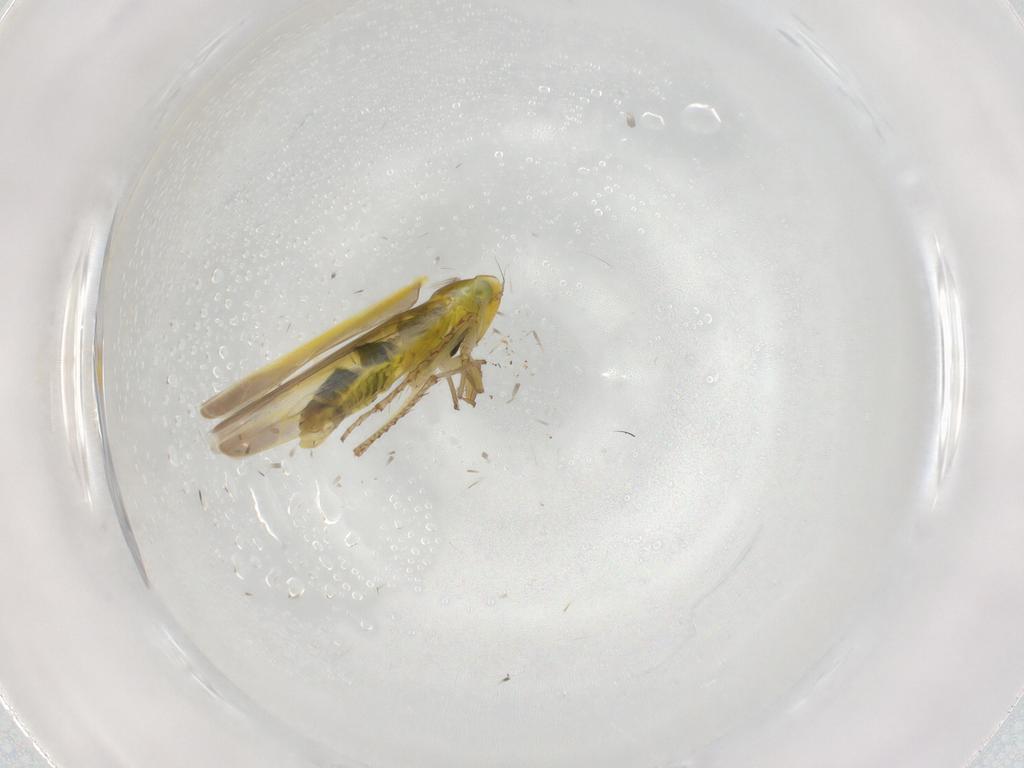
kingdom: Animalia
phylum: Arthropoda
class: Insecta
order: Hemiptera
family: Cicadellidae
